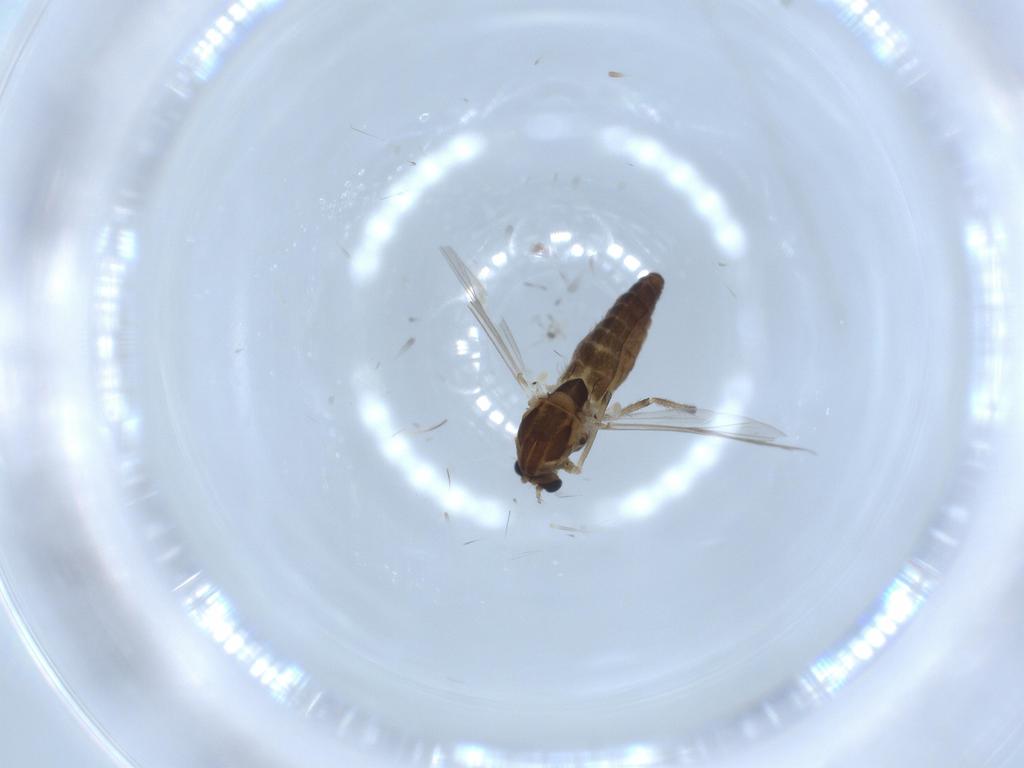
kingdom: Animalia
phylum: Arthropoda
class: Insecta
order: Diptera
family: Chironomidae
